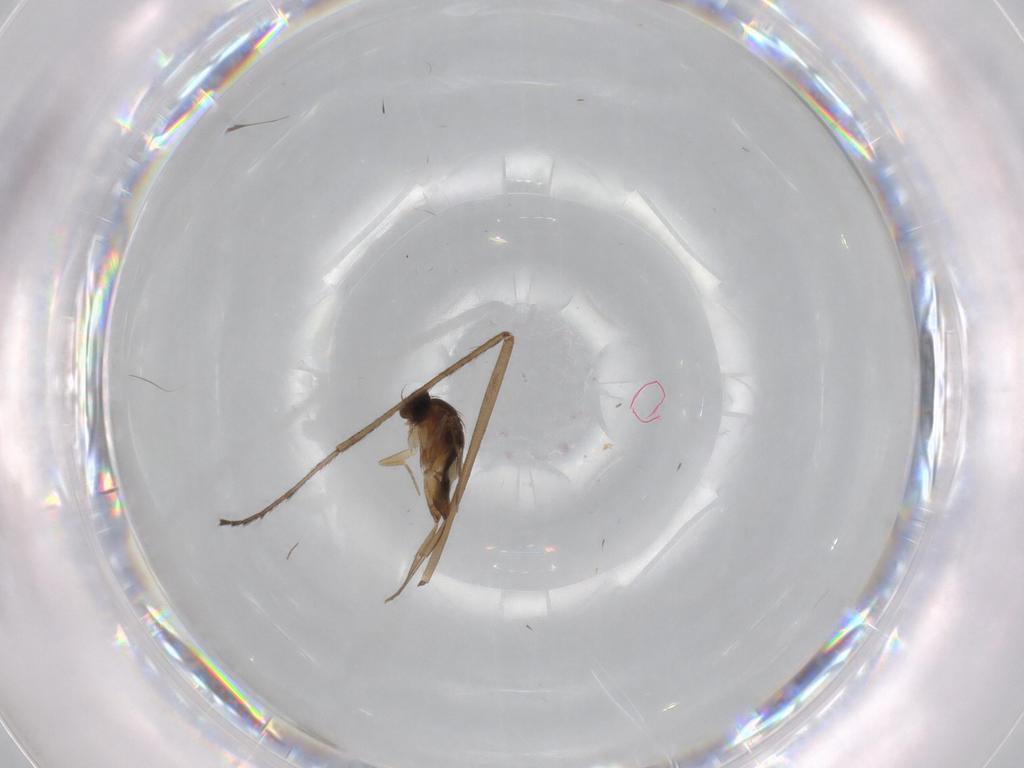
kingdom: Animalia
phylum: Arthropoda
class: Insecta
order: Diptera
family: Limoniidae
